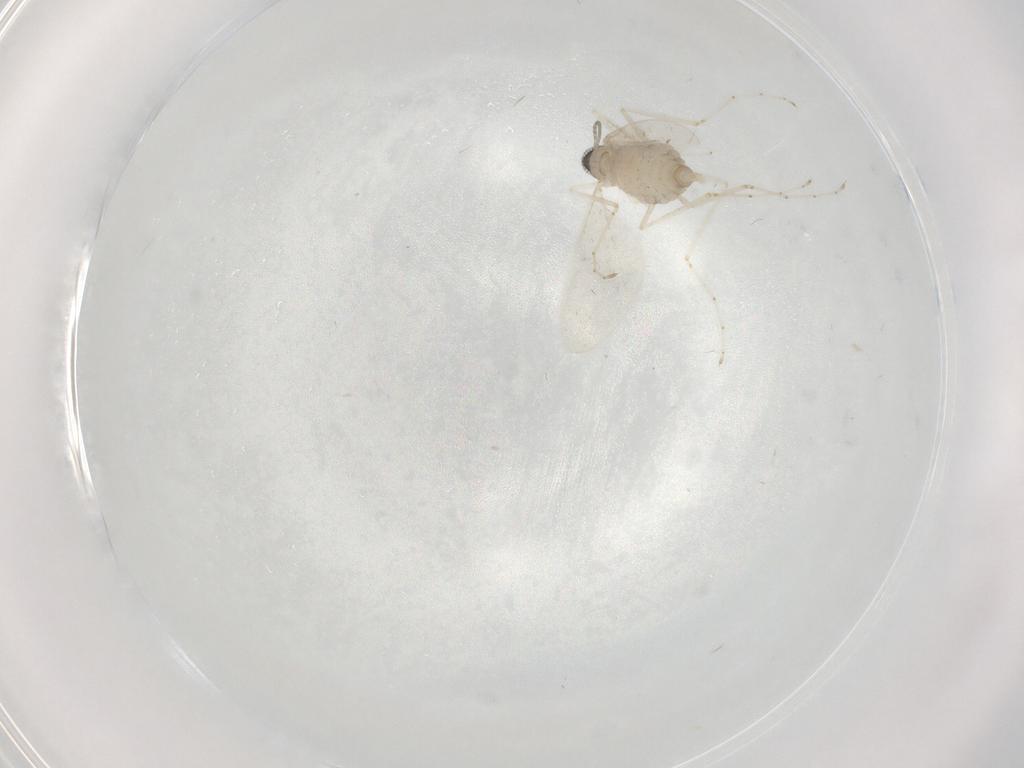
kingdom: Animalia
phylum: Arthropoda
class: Insecta
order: Diptera
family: Cecidomyiidae
